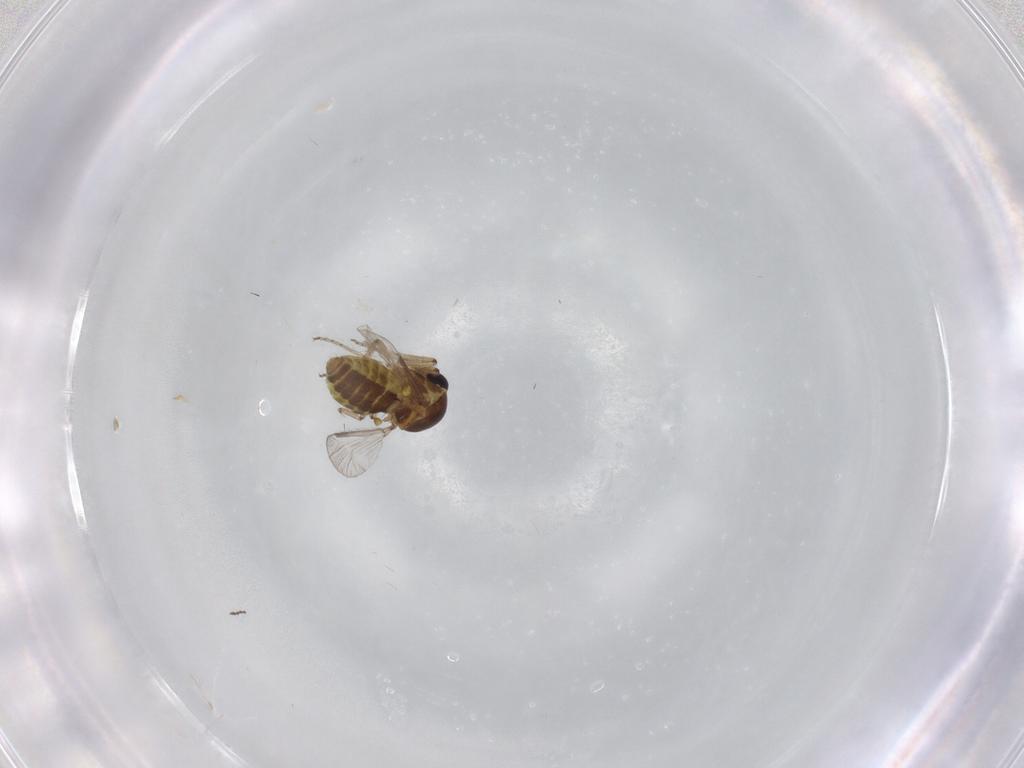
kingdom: Animalia
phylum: Arthropoda
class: Insecta
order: Diptera
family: Ceratopogonidae
